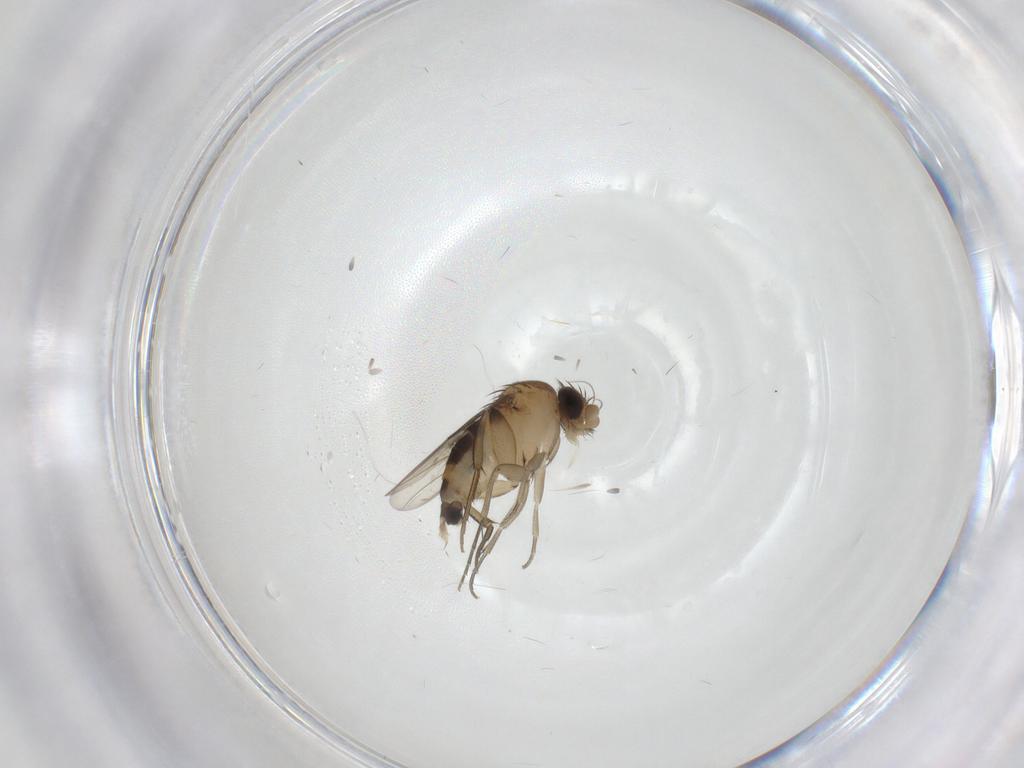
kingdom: Animalia
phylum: Arthropoda
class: Insecta
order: Diptera
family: Phoridae
